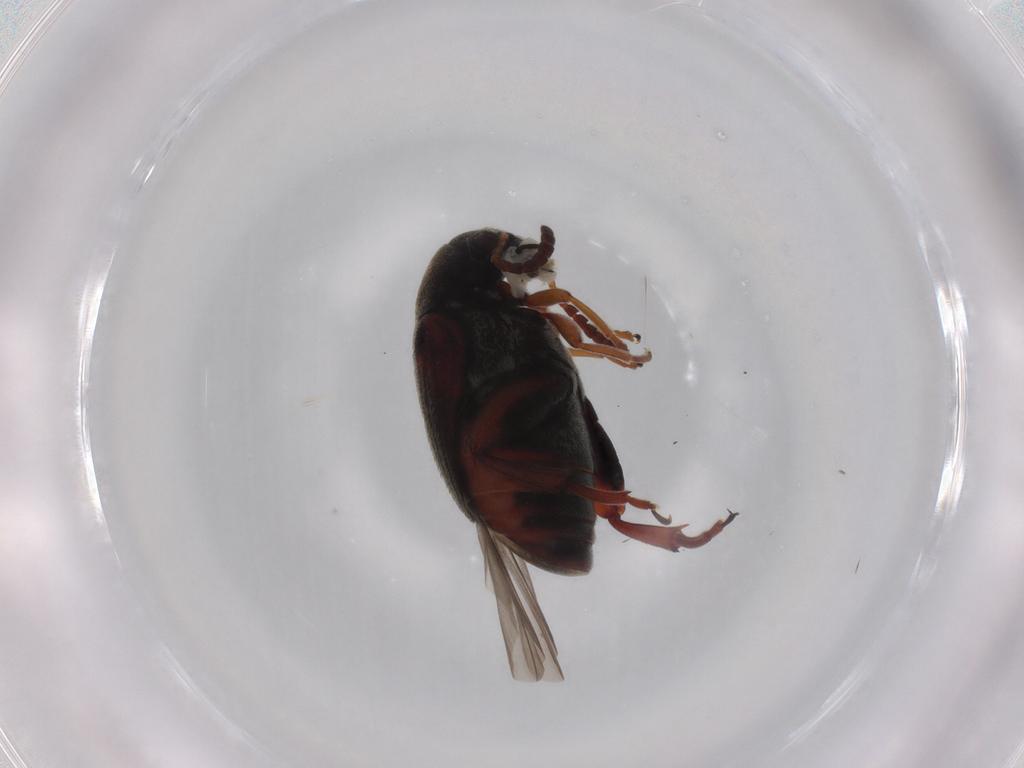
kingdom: Animalia
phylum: Arthropoda
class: Insecta
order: Coleoptera
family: Chrysomelidae
